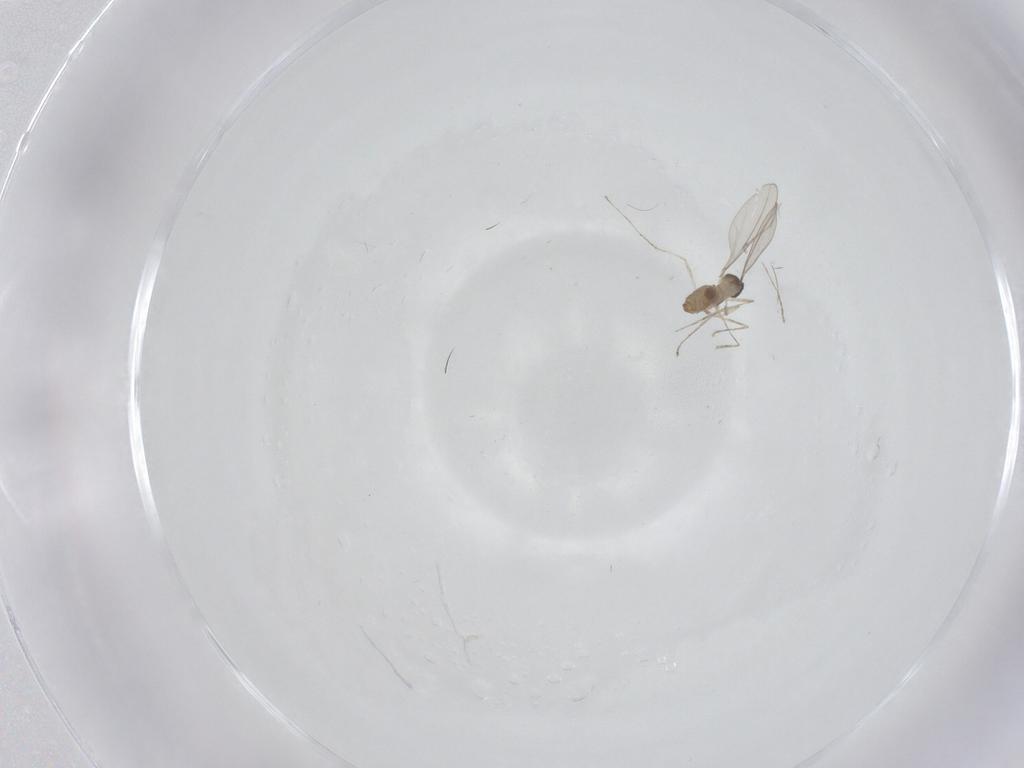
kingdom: Animalia
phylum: Arthropoda
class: Insecta
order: Diptera
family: Cecidomyiidae
